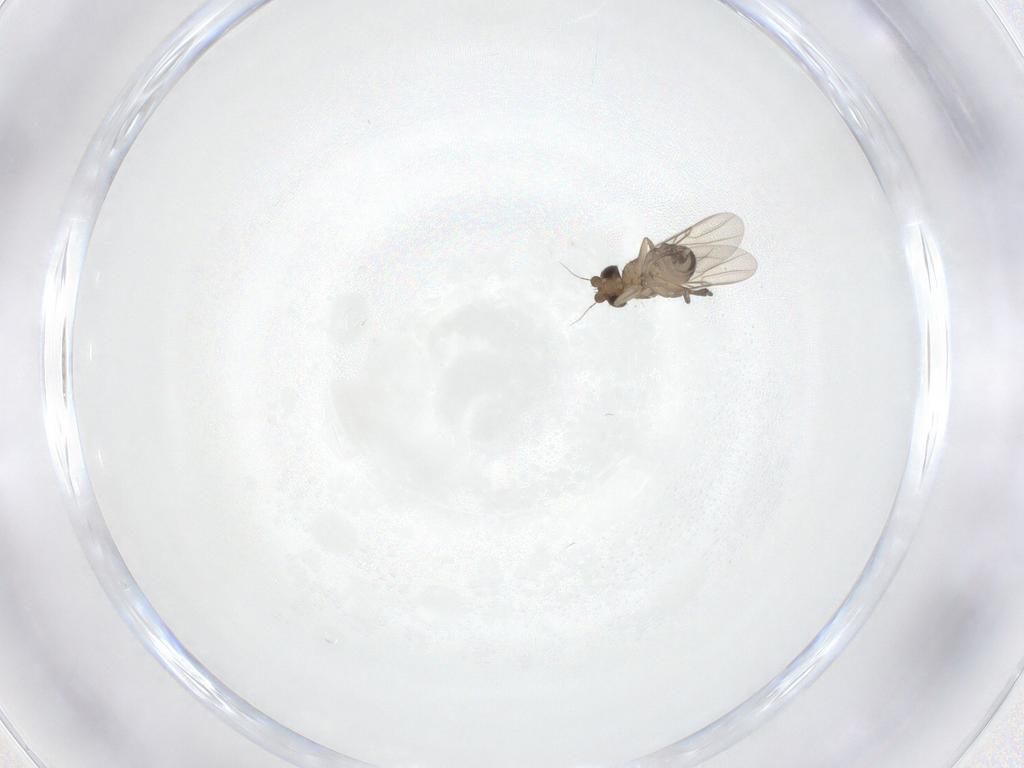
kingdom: Animalia
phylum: Arthropoda
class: Insecta
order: Diptera
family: Phoridae
